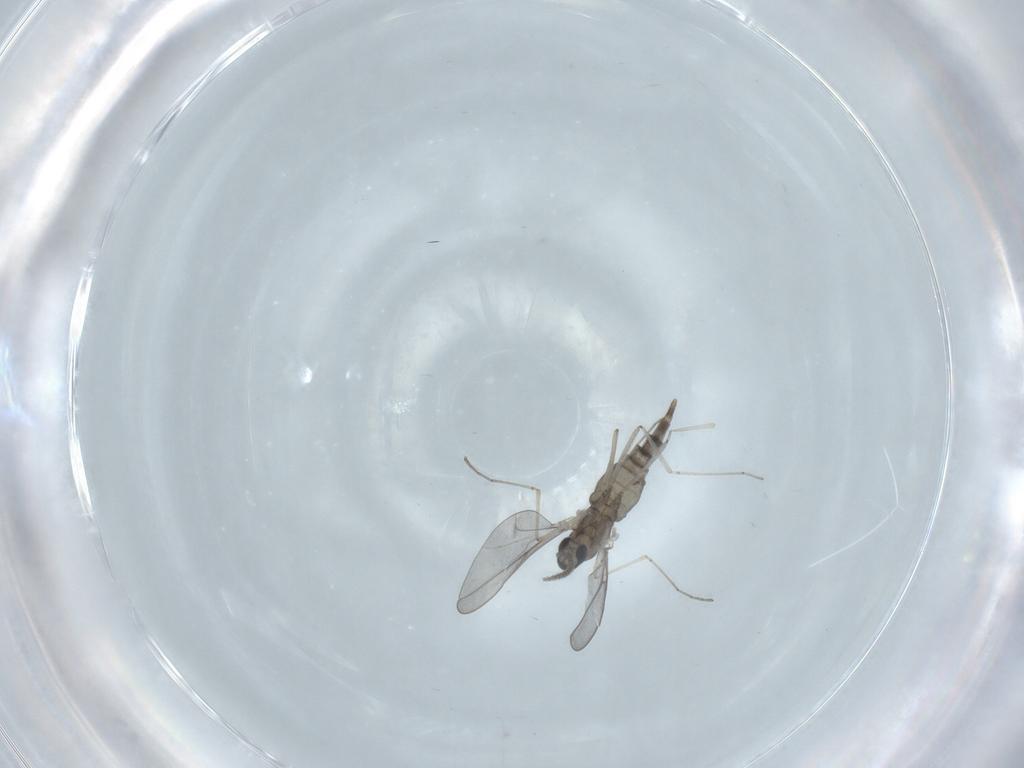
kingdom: Animalia
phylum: Arthropoda
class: Insecta
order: Diptera
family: Cecidomyiidae
